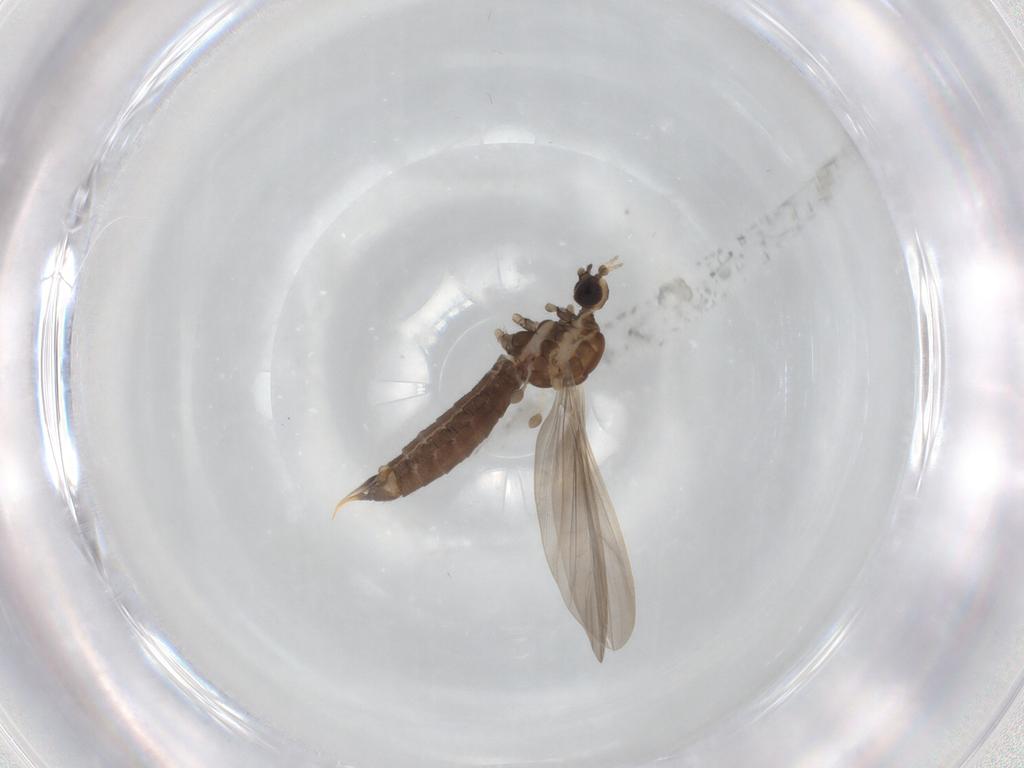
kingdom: Animalia
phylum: Arthropoda
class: Insecta
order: Diptera
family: Limoniidae
